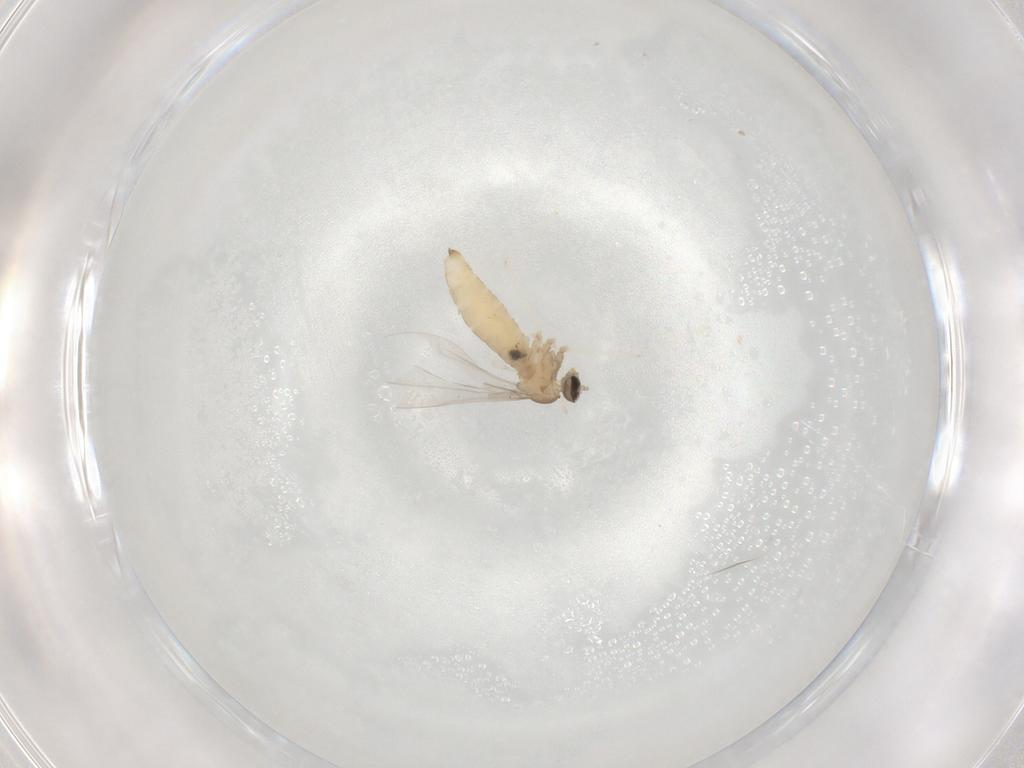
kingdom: Animalia
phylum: Arthropoda
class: Insecta
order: Diptera
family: Cecidomyiidae
